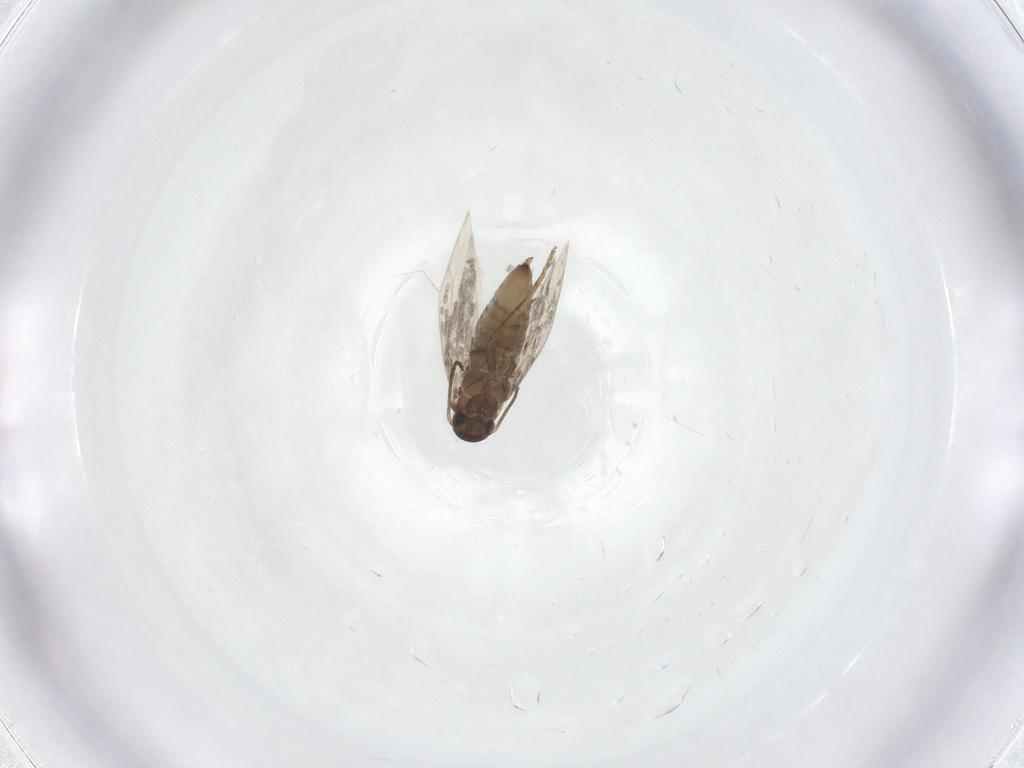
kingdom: Animalia
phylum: Arthropoda
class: Insecta
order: Lepidoptera
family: Heliozelidae
